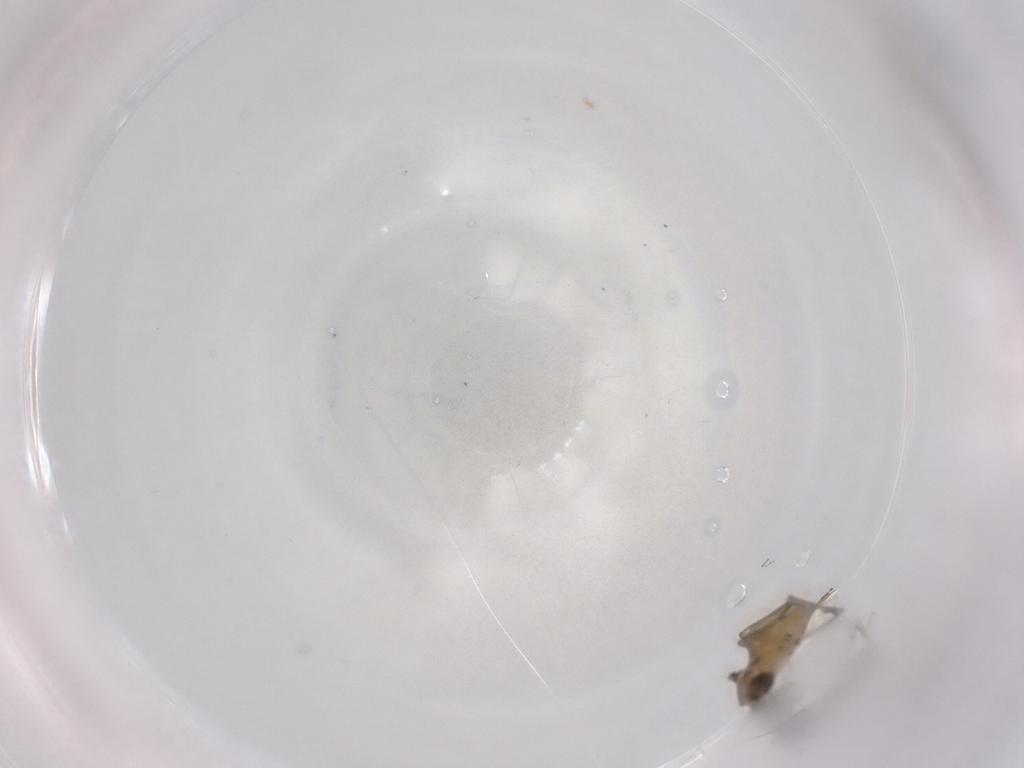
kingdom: Animalia
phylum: Arthropoda
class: Insecta
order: Diptera
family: Sciaridae
